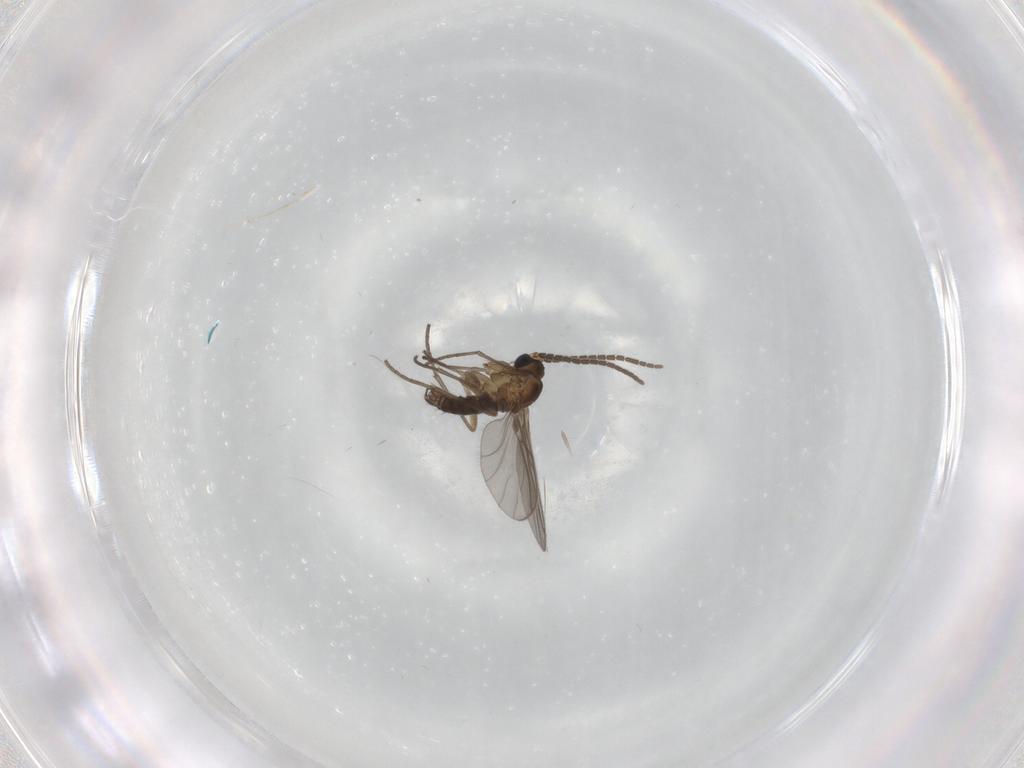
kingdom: Animalia
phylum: Arthropoda
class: Insecta
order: Diptera
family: Sciaridae
